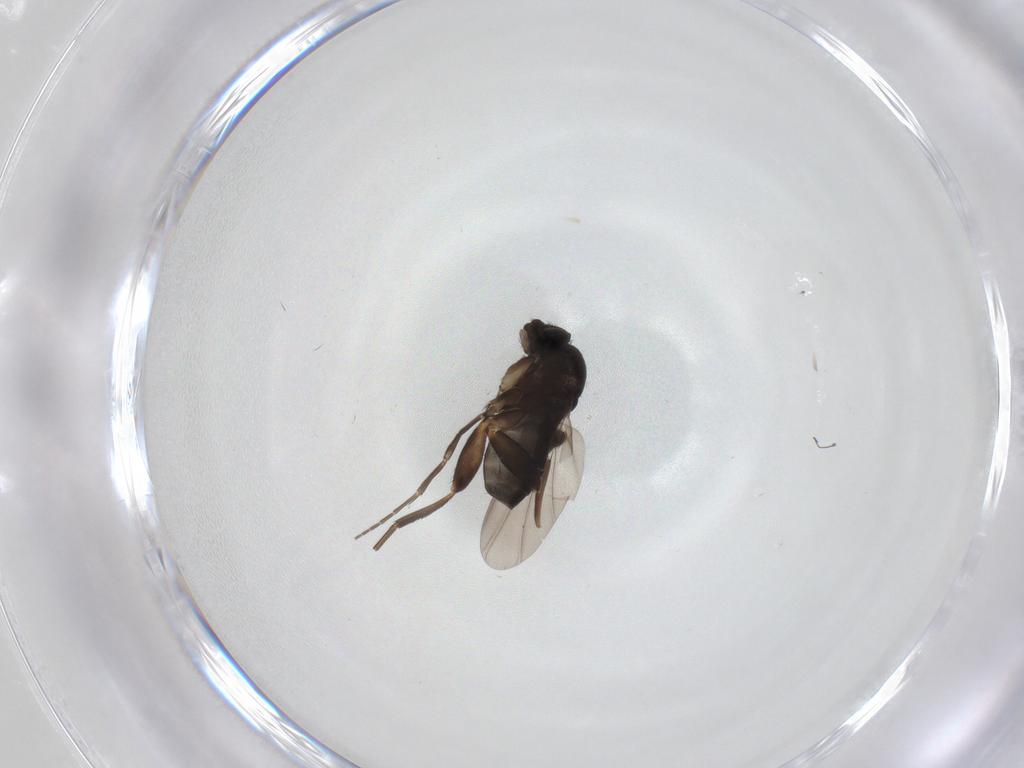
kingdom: Animalia
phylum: Arthropoda
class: Insecta
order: Diptera
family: Phoridae
